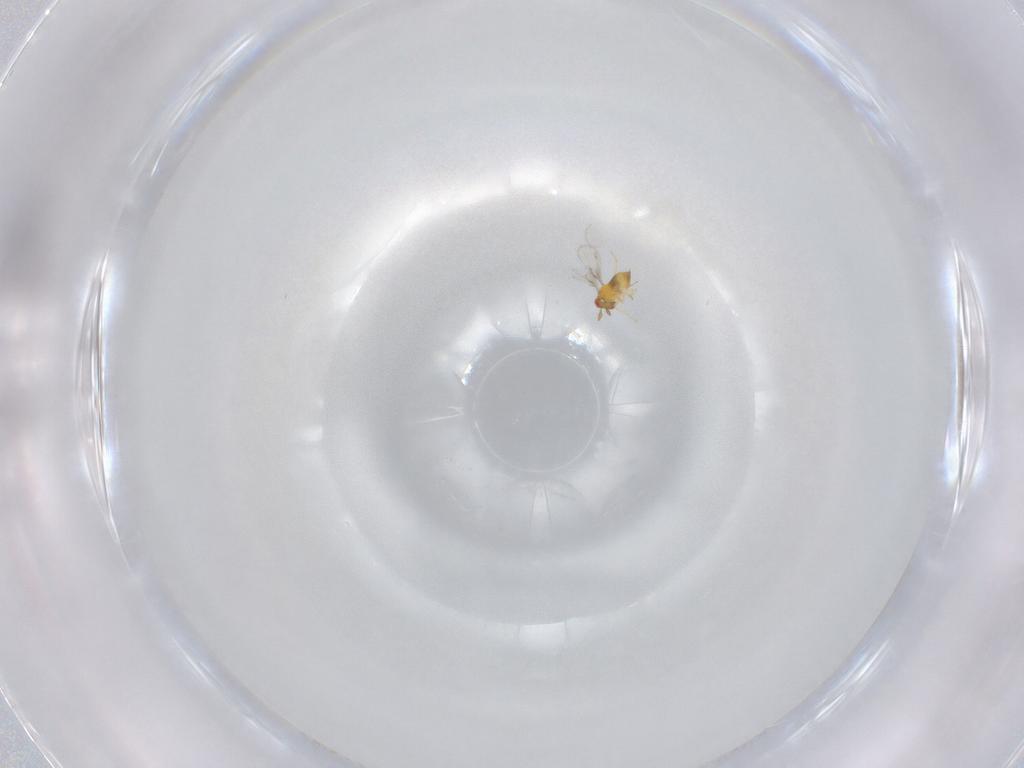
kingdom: Animalia
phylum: Arthropoda
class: Insecta
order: Hymenoptera
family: Trichogrammatidae
